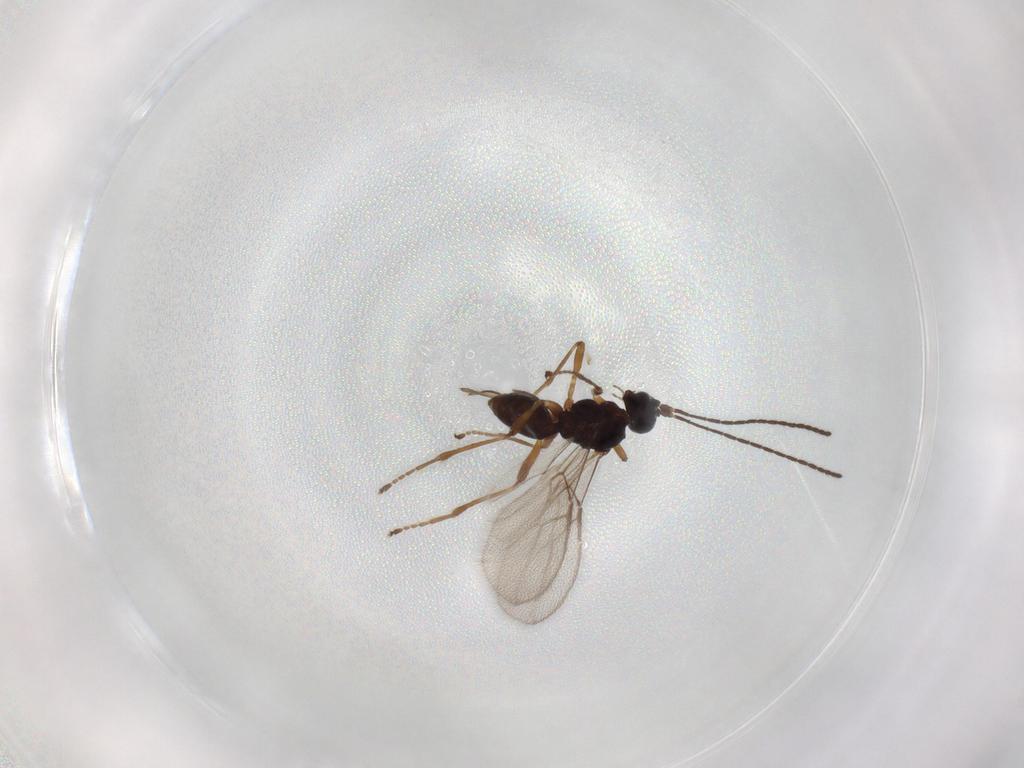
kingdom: Animalia
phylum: Arthropoda
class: Insecta
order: Hymenoptera
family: Braconidae
